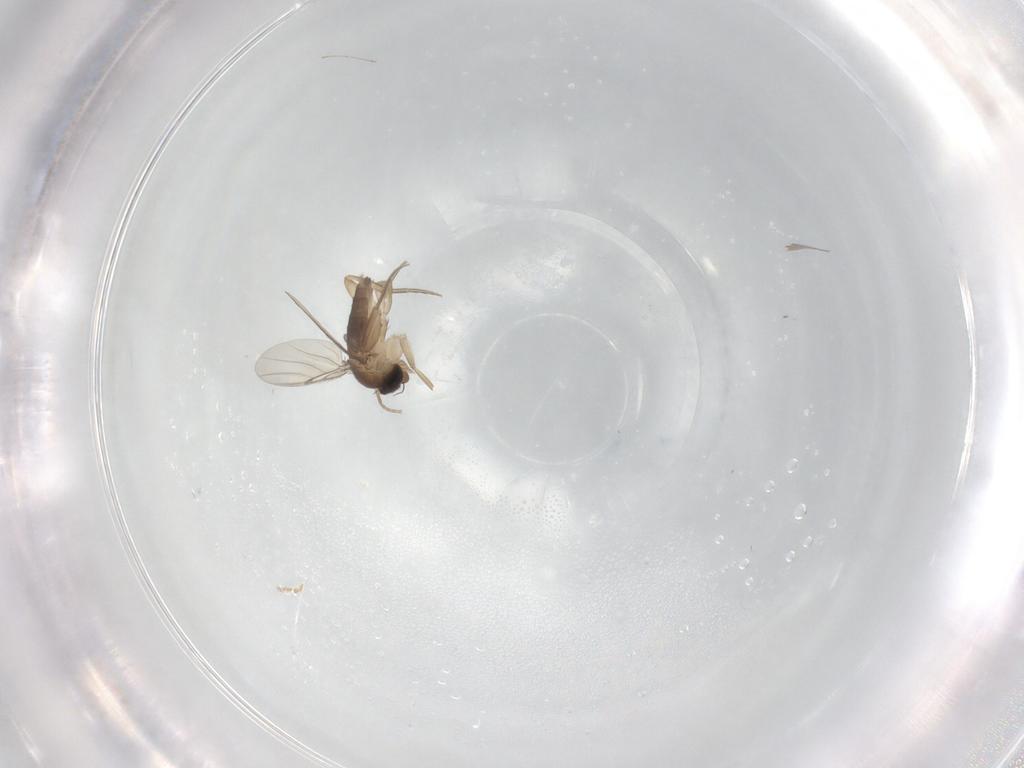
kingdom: Animalia
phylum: Arthropoda
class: Insecta
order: Diptera
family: Phoridae
